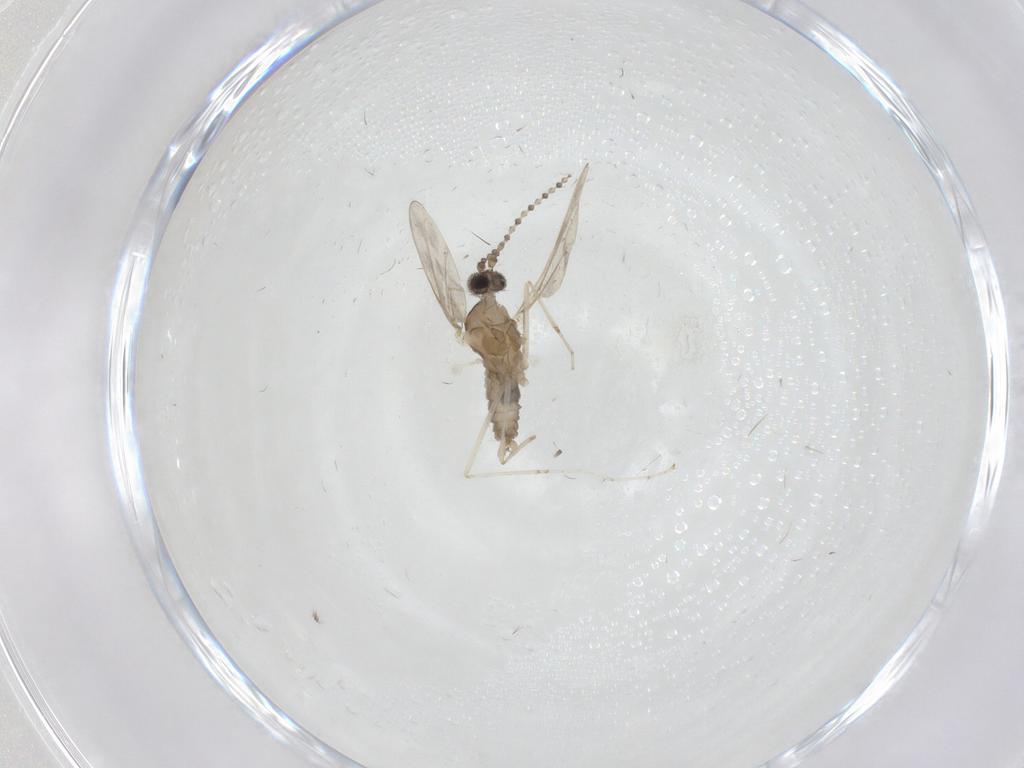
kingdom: Animalia
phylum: Arthropoda
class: Insecta
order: Diptera
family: Cecidomyiidae
